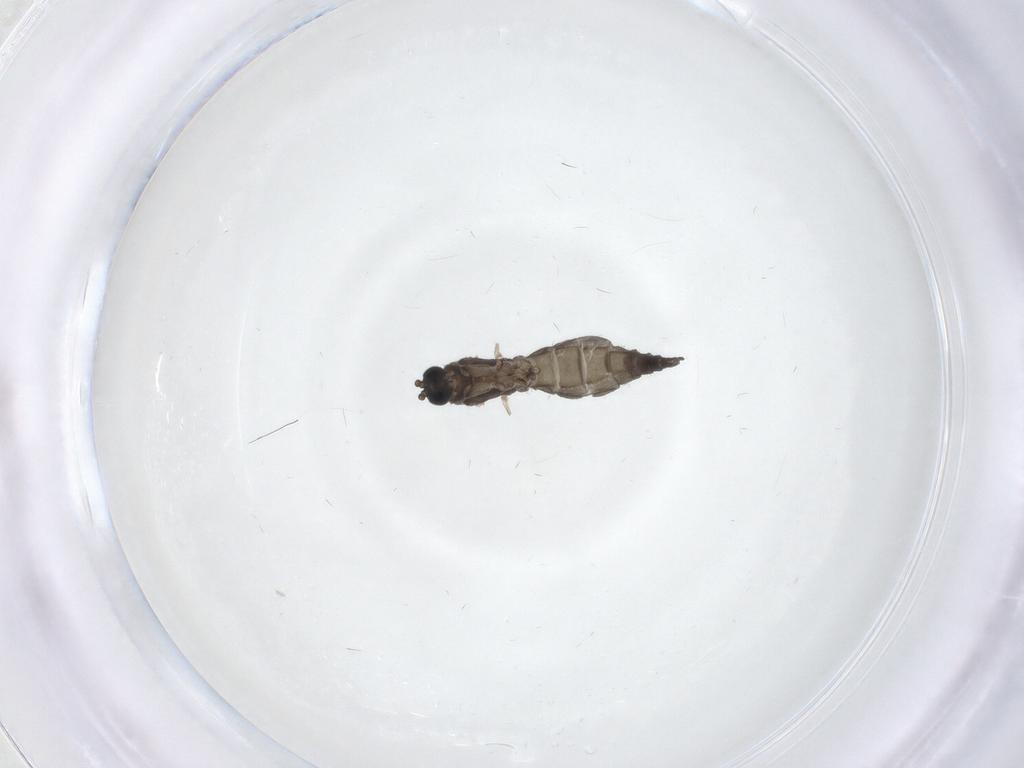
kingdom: Animalia
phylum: Arthropoda
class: Insecta
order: Diptera
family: Sciaridae
